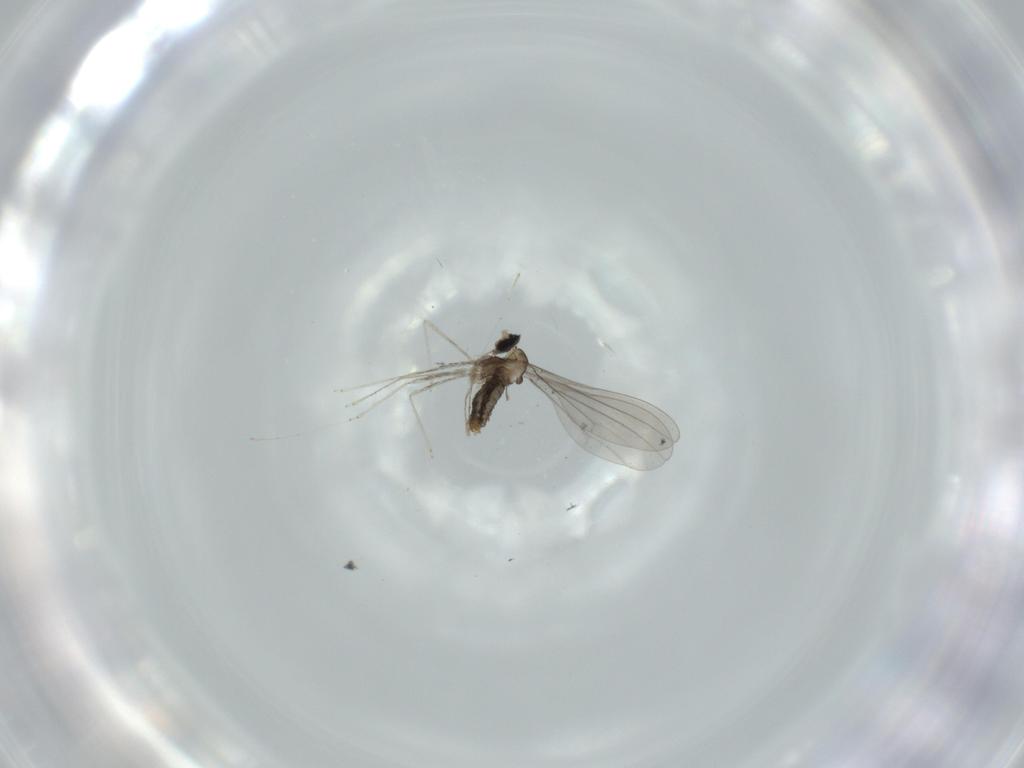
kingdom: Animalia
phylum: Arthropoda
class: Insecta
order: Diptera
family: Cecidomyiidae
